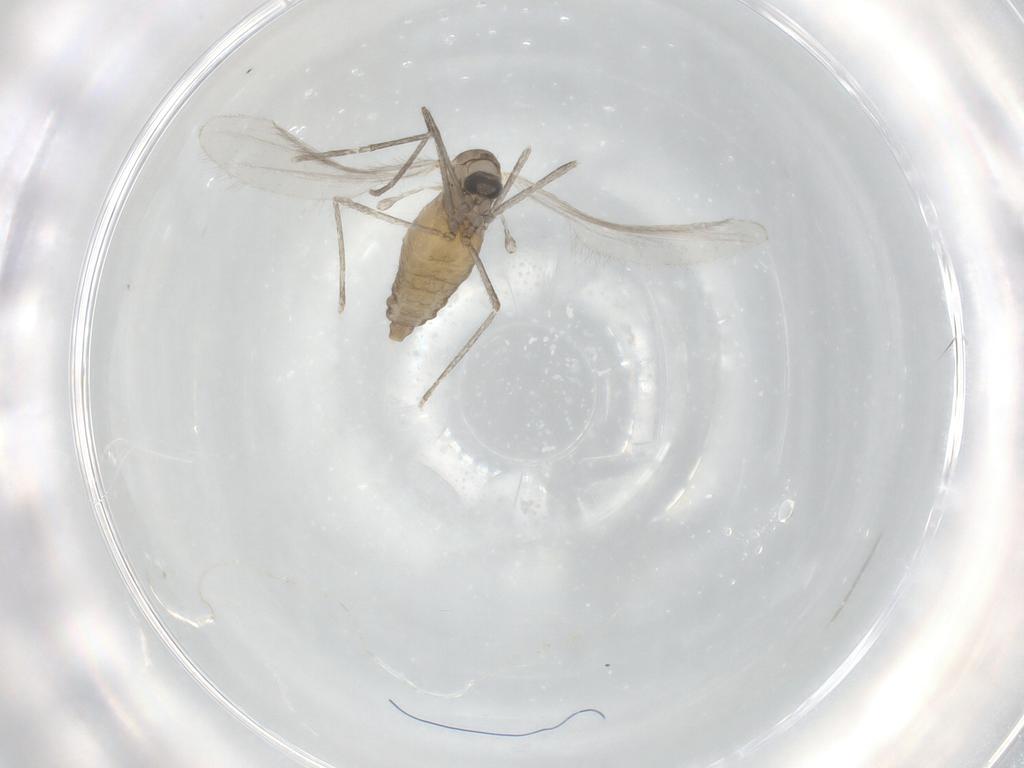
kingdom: Animalia
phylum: Arthropoda
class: Insecta
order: Diptera
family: Cecidomyiidae
